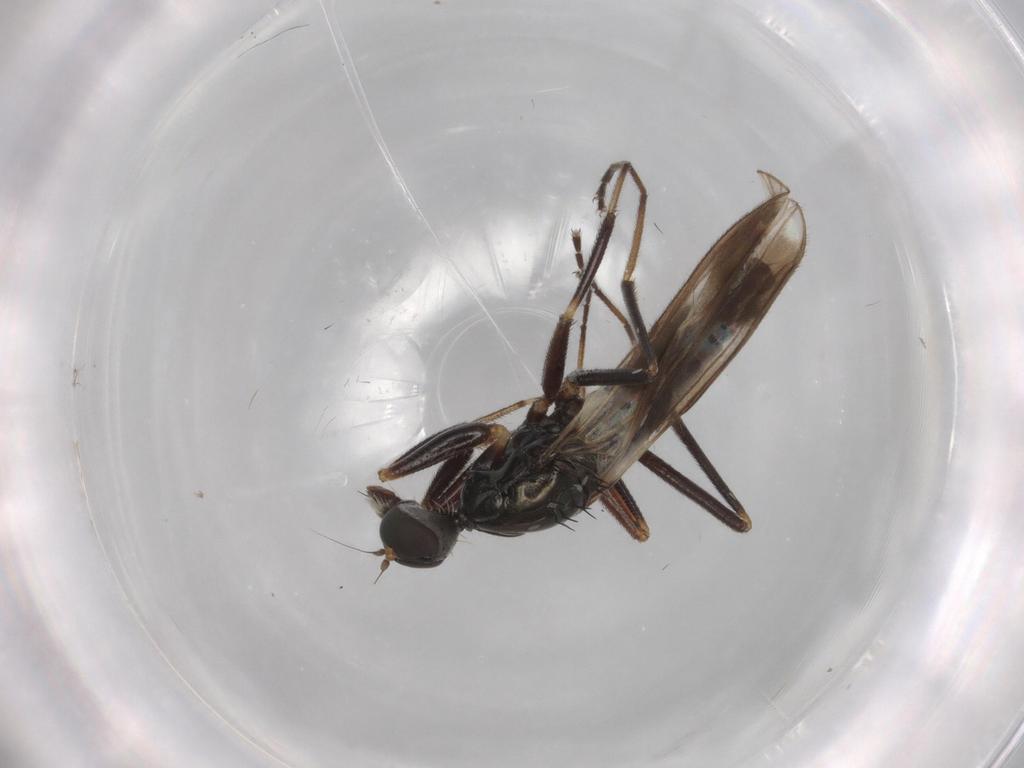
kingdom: Animalia
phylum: Arthropoda
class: Insecta
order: Diptera
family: Hybotidae
